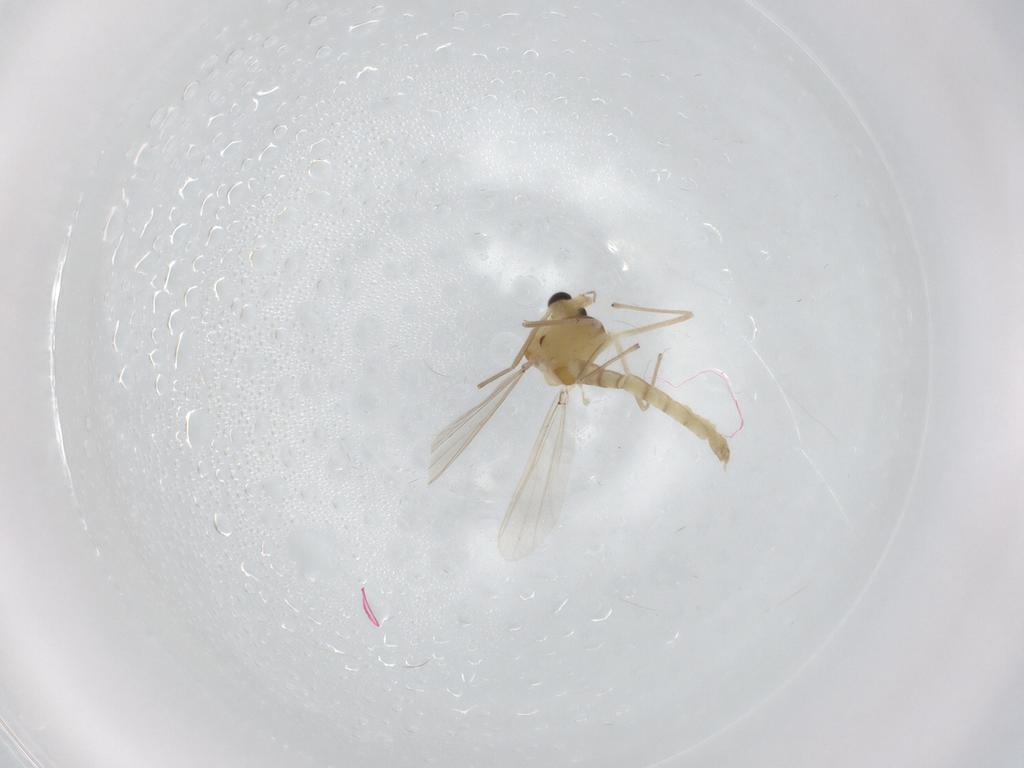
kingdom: Animalia
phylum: Arthropoda
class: Insecta
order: Diptera
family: Chironomidae
